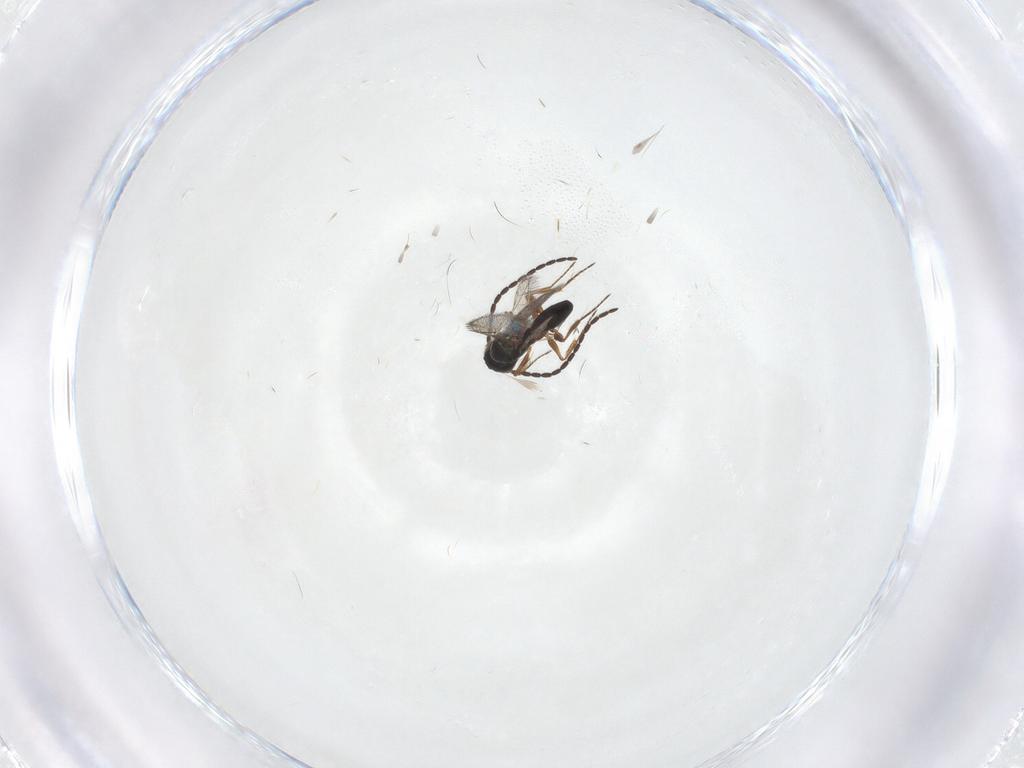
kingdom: Animalia
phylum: Arthropoda
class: Insecta
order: Hymenoptera
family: Figitidae
